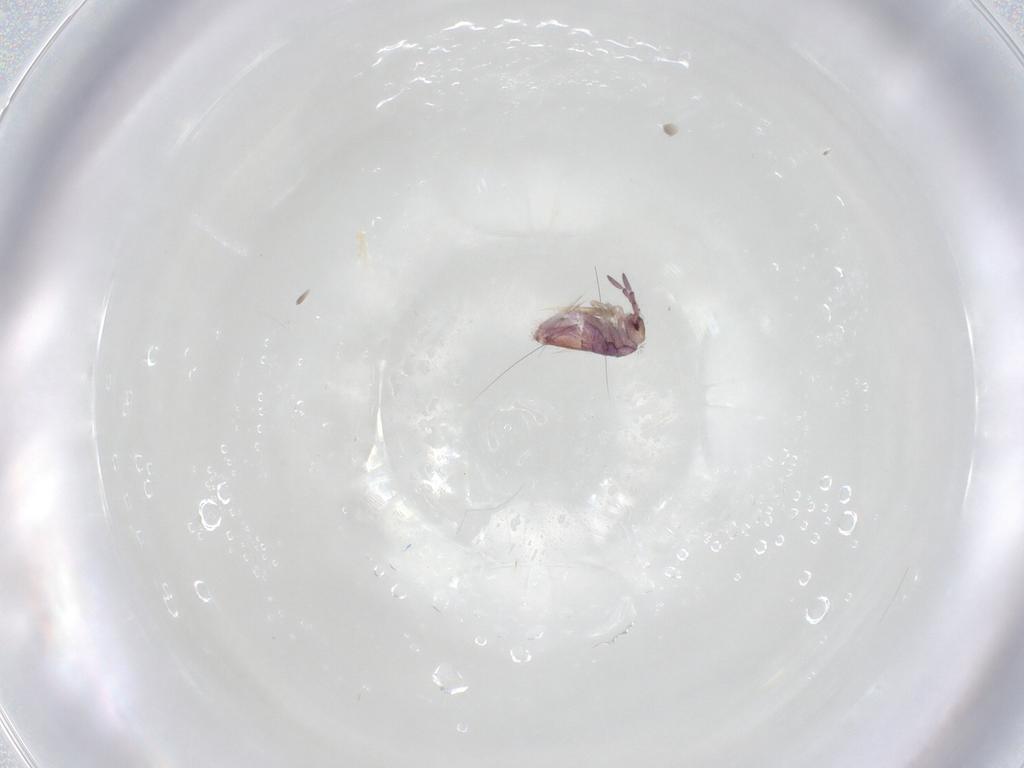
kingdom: Animalia
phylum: Arthropoda
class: Collembola
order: Entomobryomorpha
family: Entomobryidae
